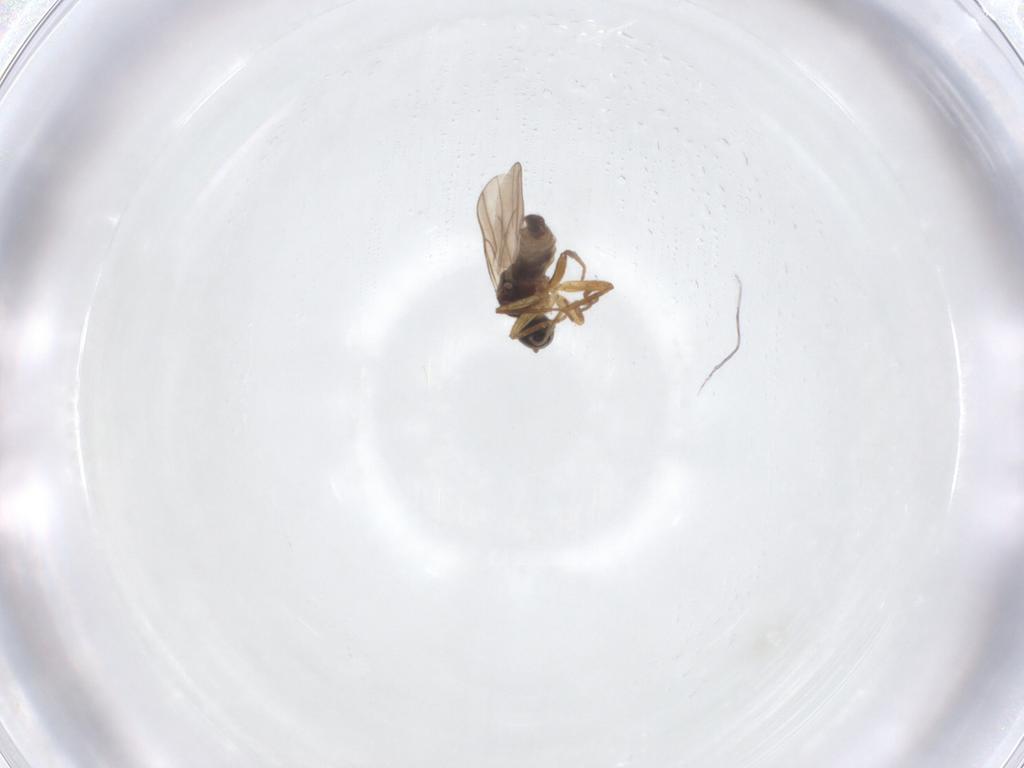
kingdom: Animalia
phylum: Arthropoda
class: Insecta
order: Diptera
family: Hybotidae
